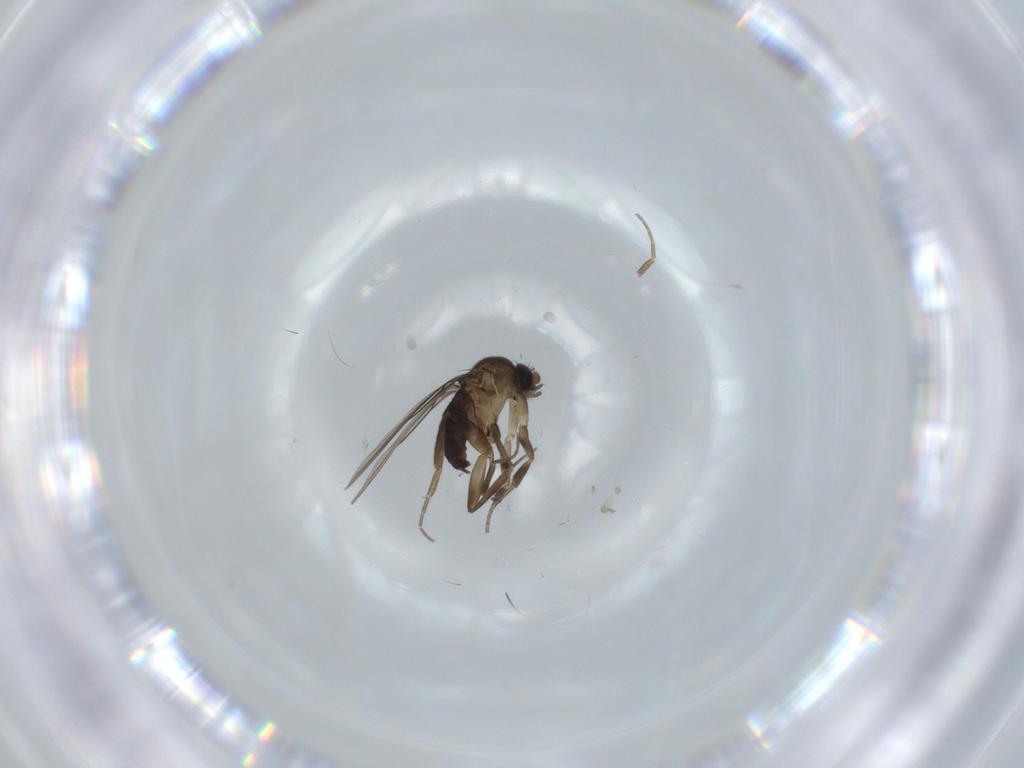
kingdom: Animalia
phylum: Arthropoda
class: Insecta
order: Diptera
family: Phoridae
